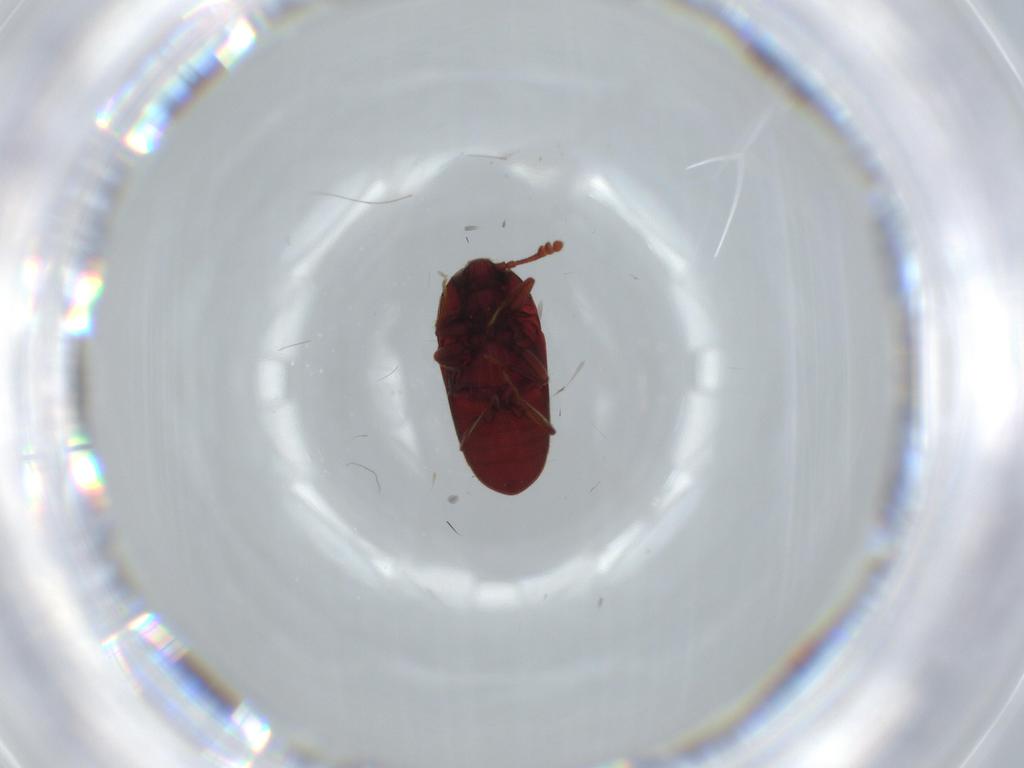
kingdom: Animalia
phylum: Arthropoda
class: Insecta
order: Coleoptera
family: Throscidae
